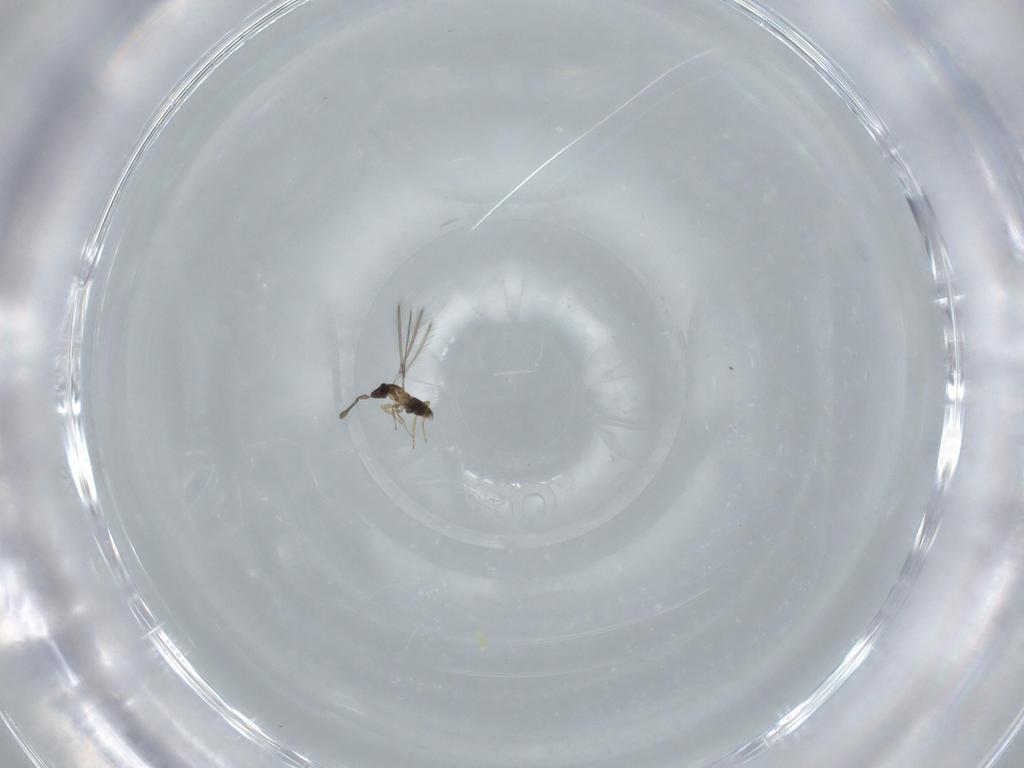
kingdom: Animalia
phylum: Arthropoda
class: Insecta
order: Hymenoptera
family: Mymaridae
